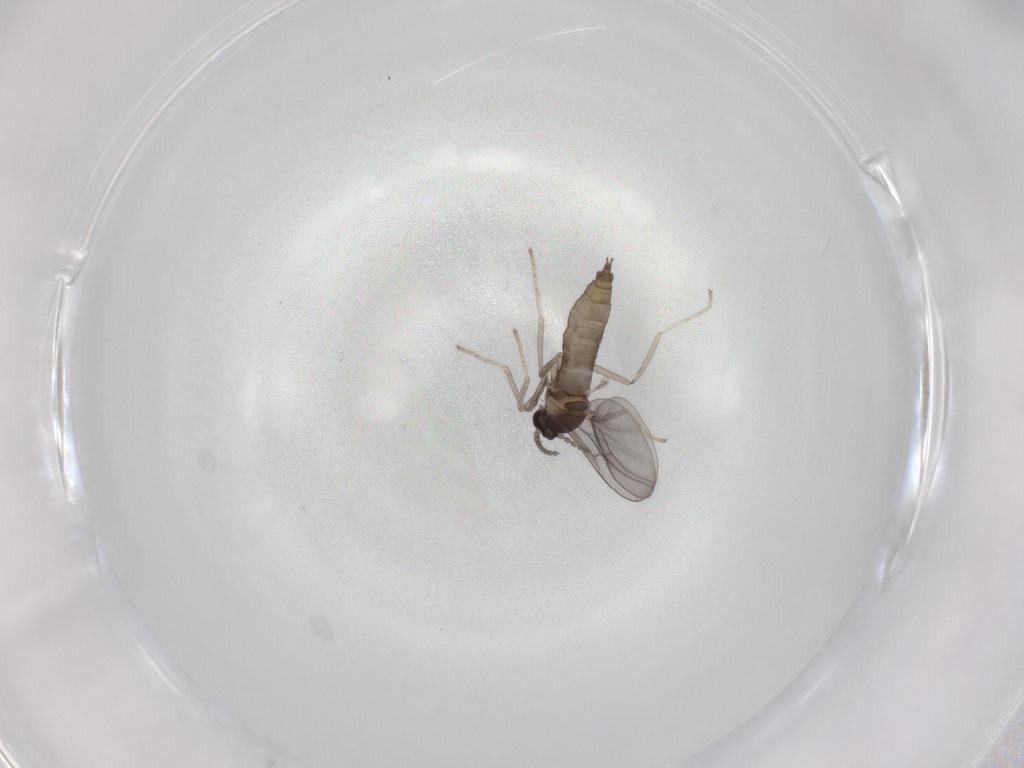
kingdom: Animalia
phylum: Arthropoda
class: Insecta
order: Diptera
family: Cecidomyiidae
